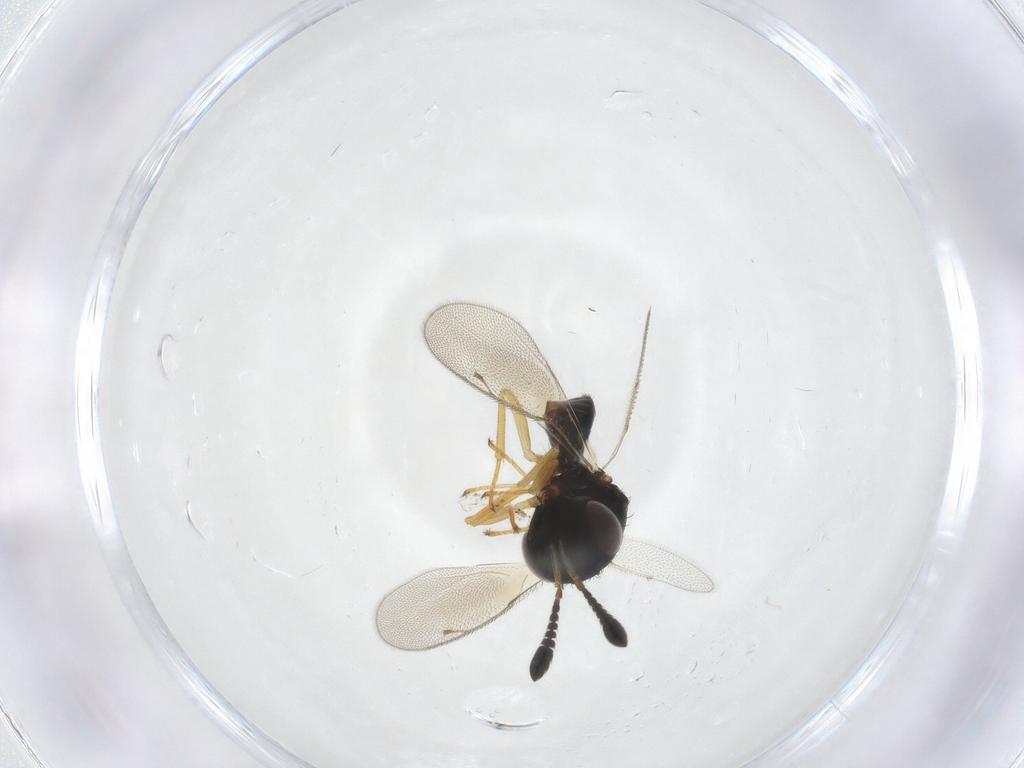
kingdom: Animalia
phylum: Arthropoda
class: Insecta
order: Hymenoptera
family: Pteromalidae
